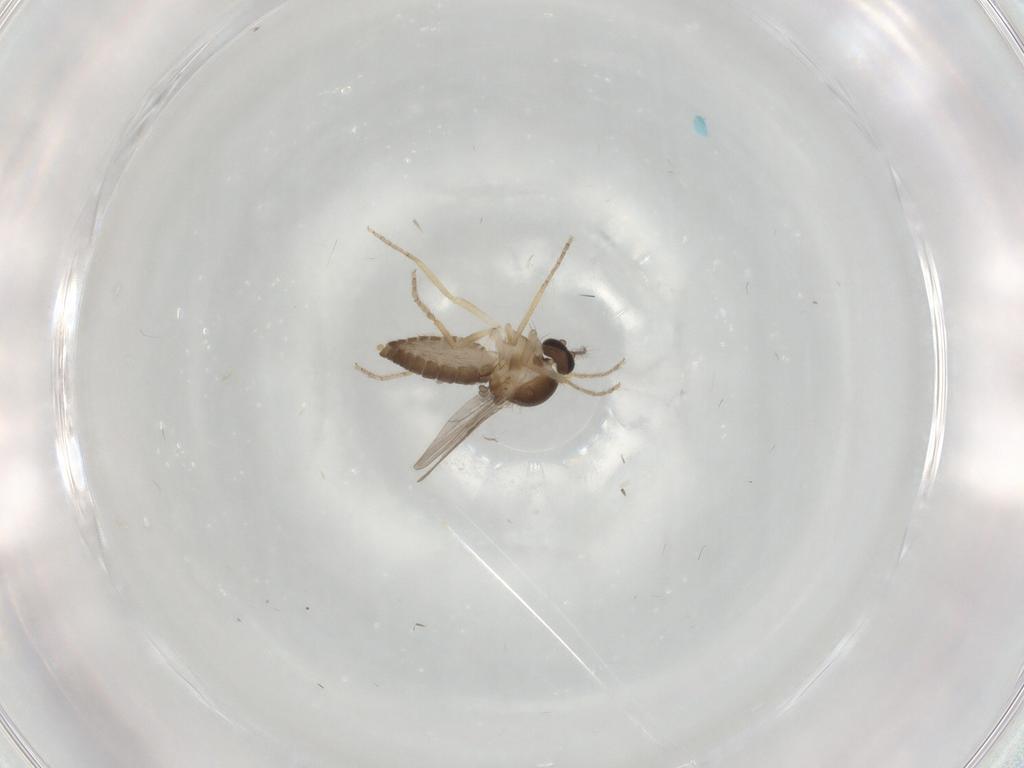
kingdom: Animalia
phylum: Arthropoda
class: Insecta
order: Diptera
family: Ceratopogonidae
